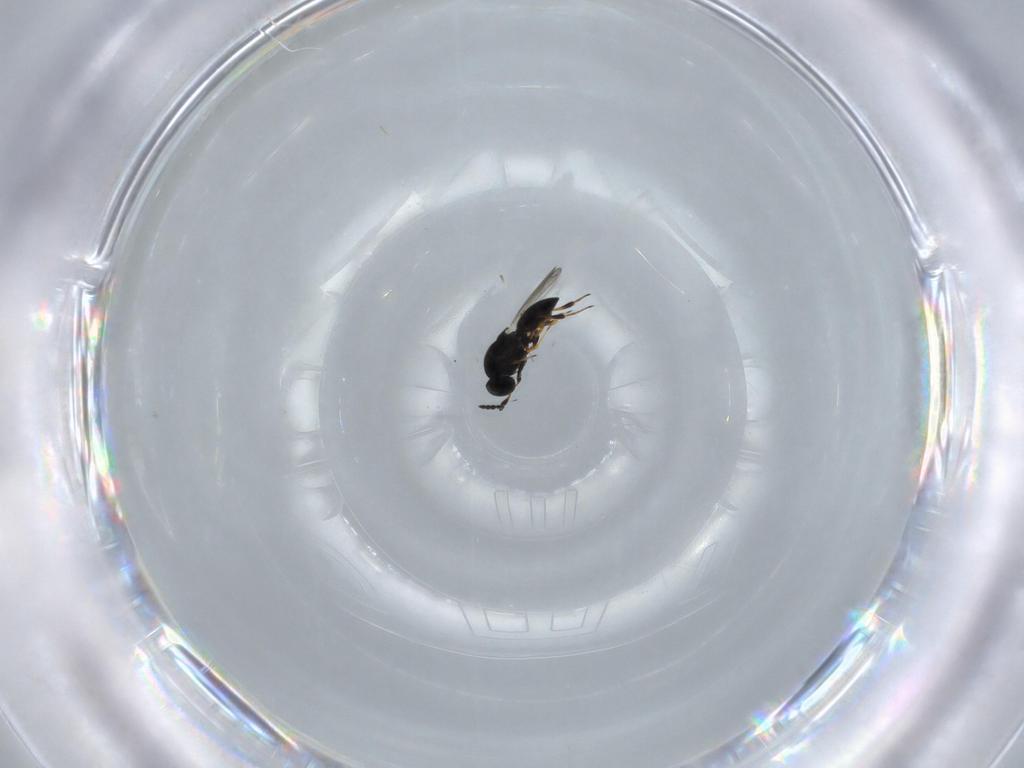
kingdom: Animalia
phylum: Arthropoda
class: Insecta
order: Hymenoptera
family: Platygastridae
